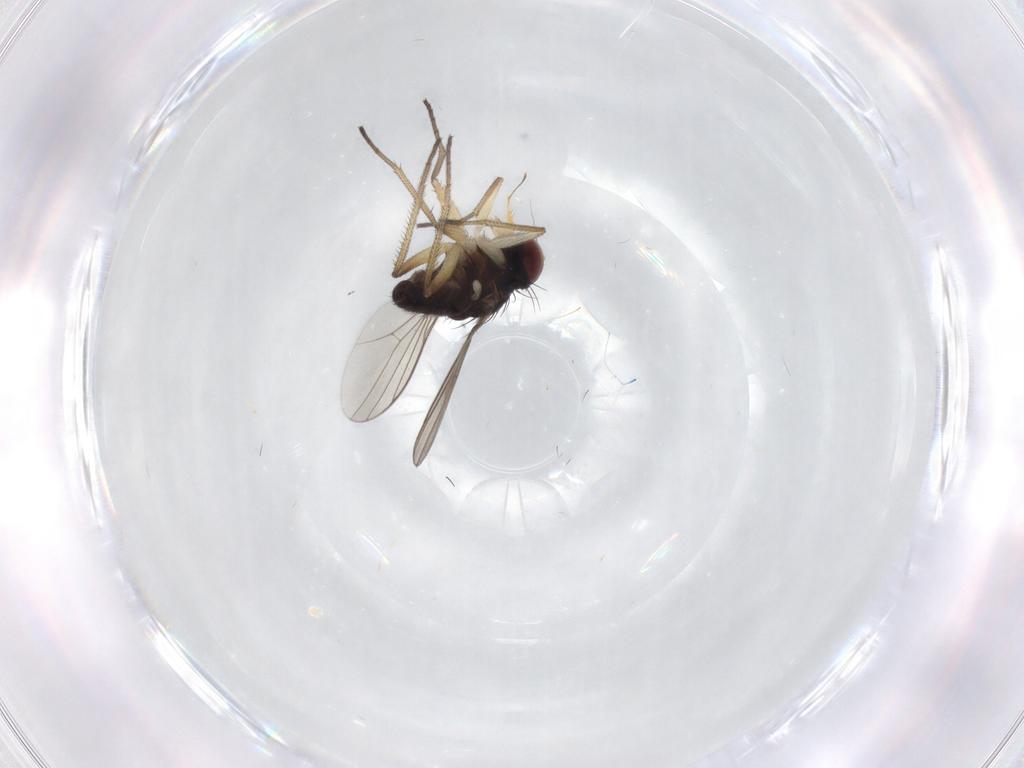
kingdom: Animalia
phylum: Arthropoda
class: Insecta
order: Diptera
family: Dolichopodidae
